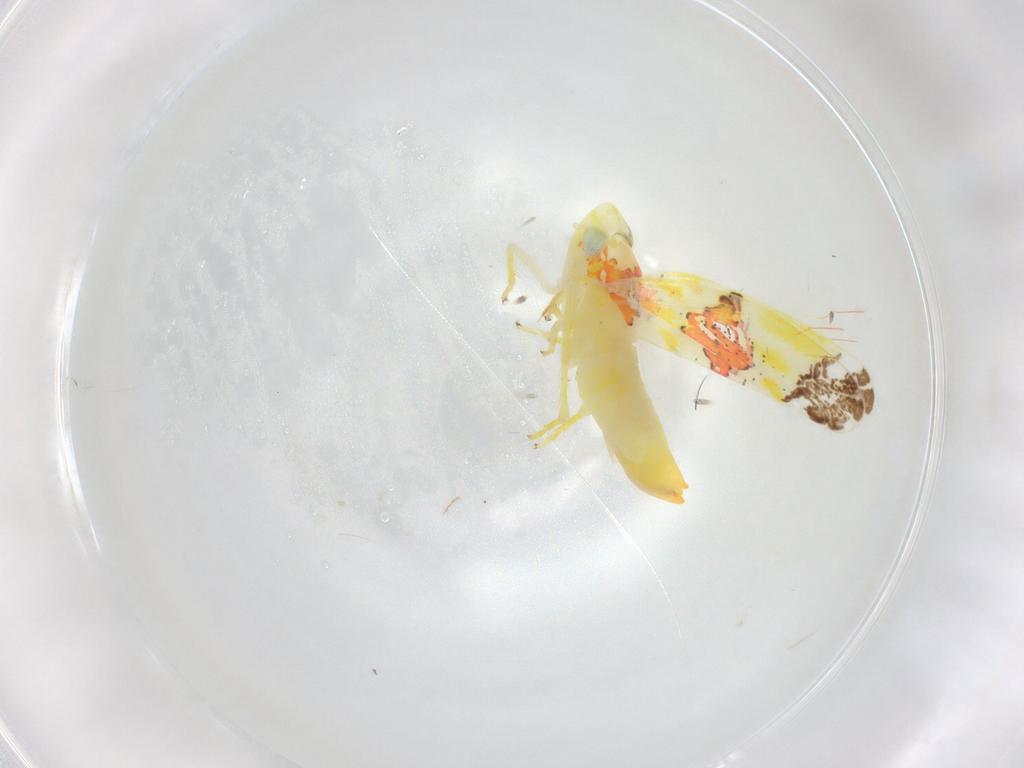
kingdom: Animalia
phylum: Arthropoda
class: Insecta
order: Hemiptera
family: Cicadellidae
